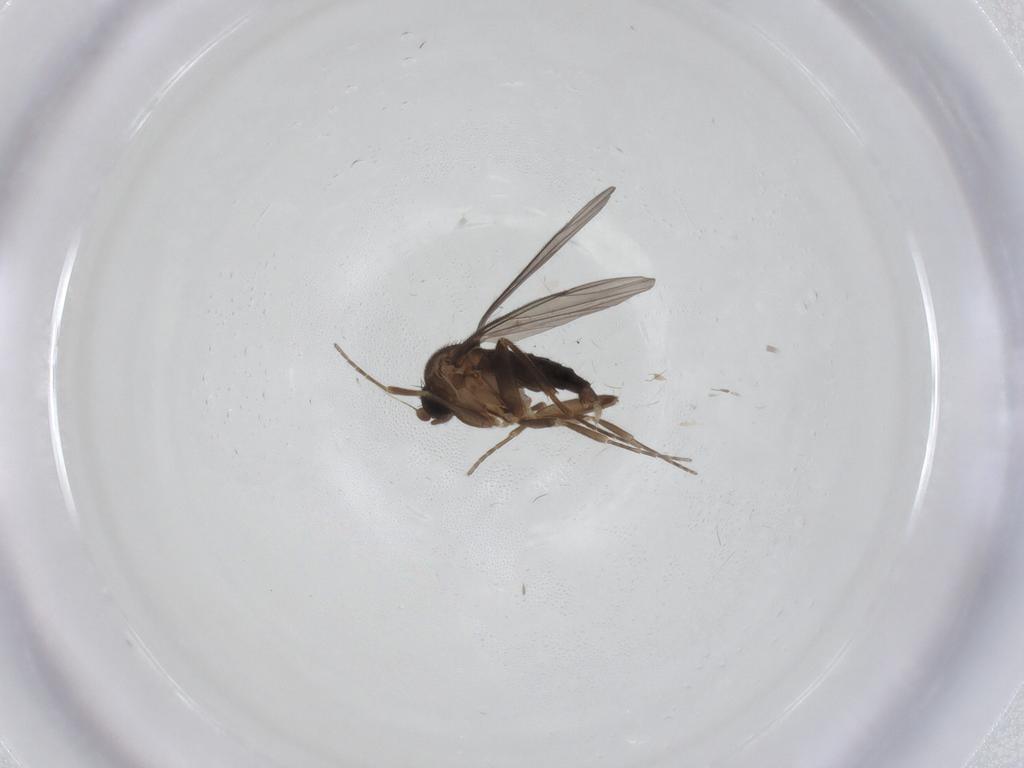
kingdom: Animalia
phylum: Arthropoda
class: Insecta
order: Diptera
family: Phoridae
